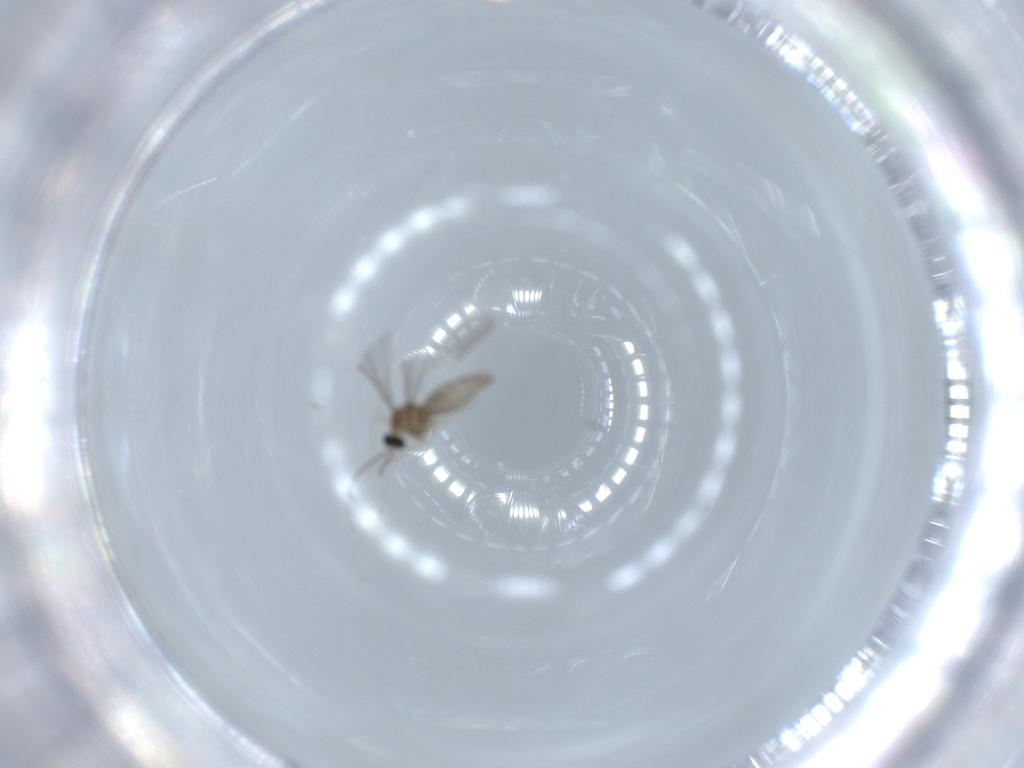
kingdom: Animalia
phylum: Arthropoda
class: Insecta
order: Diptera
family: Cecidomyiidae
